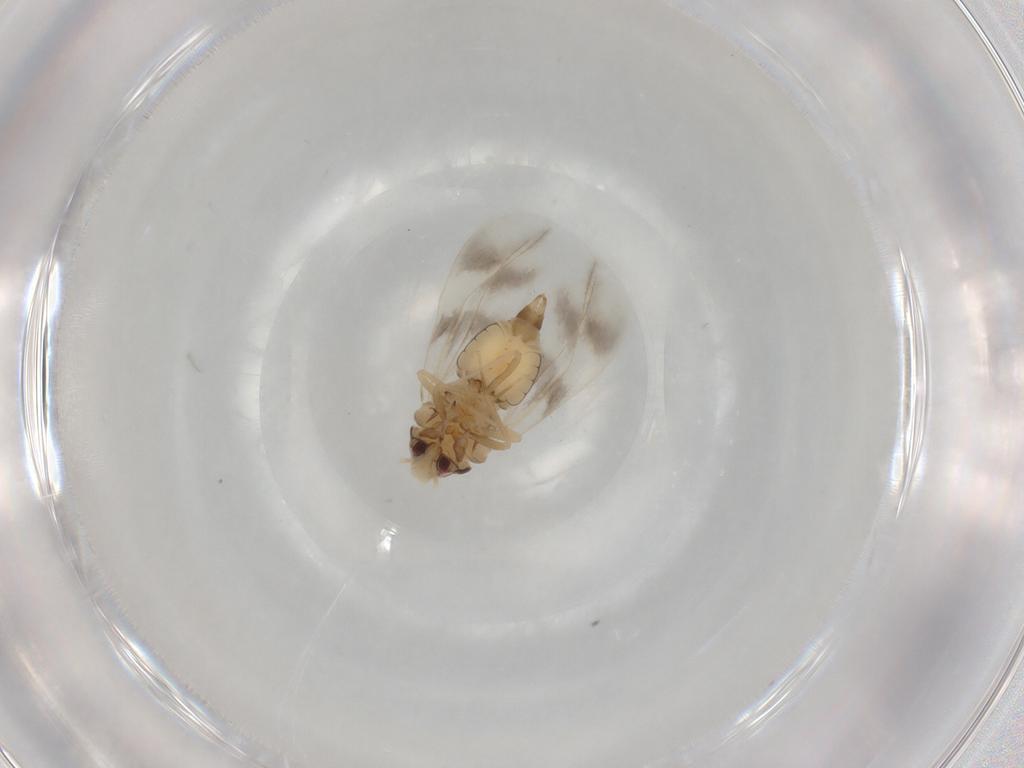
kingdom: Animalia
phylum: Arthropoda
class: Insecta
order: Hemiptera
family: Aleyrodidae
